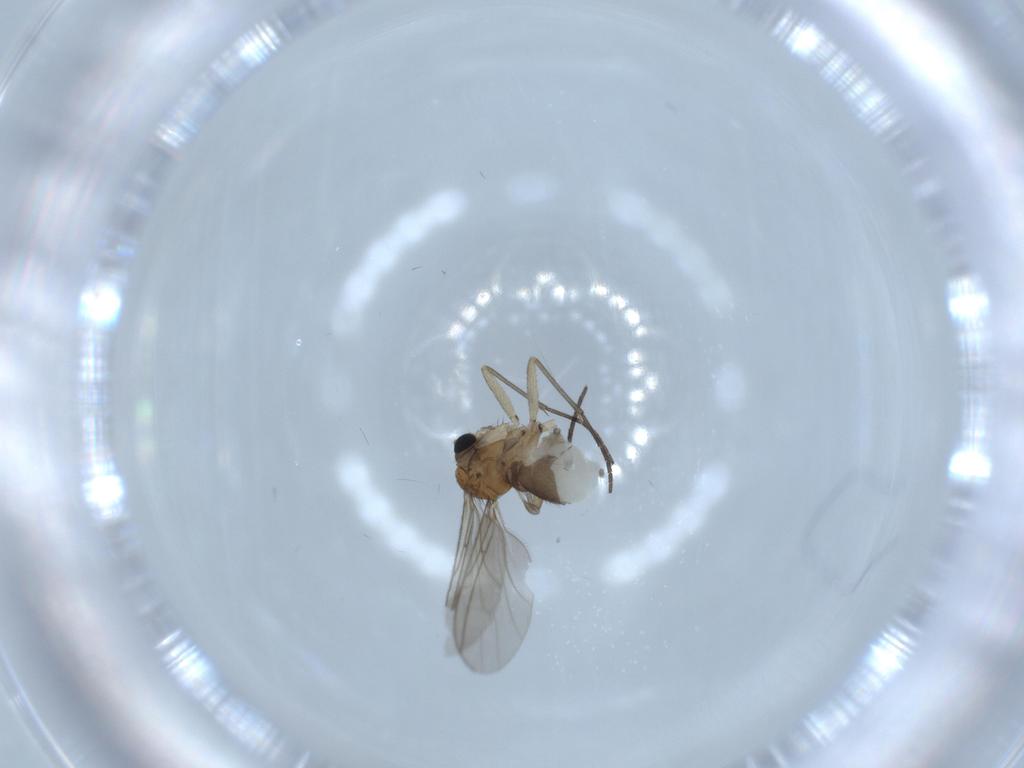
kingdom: Animalia
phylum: Arthropoda
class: Insecta
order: Diptera
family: Sciaridae
